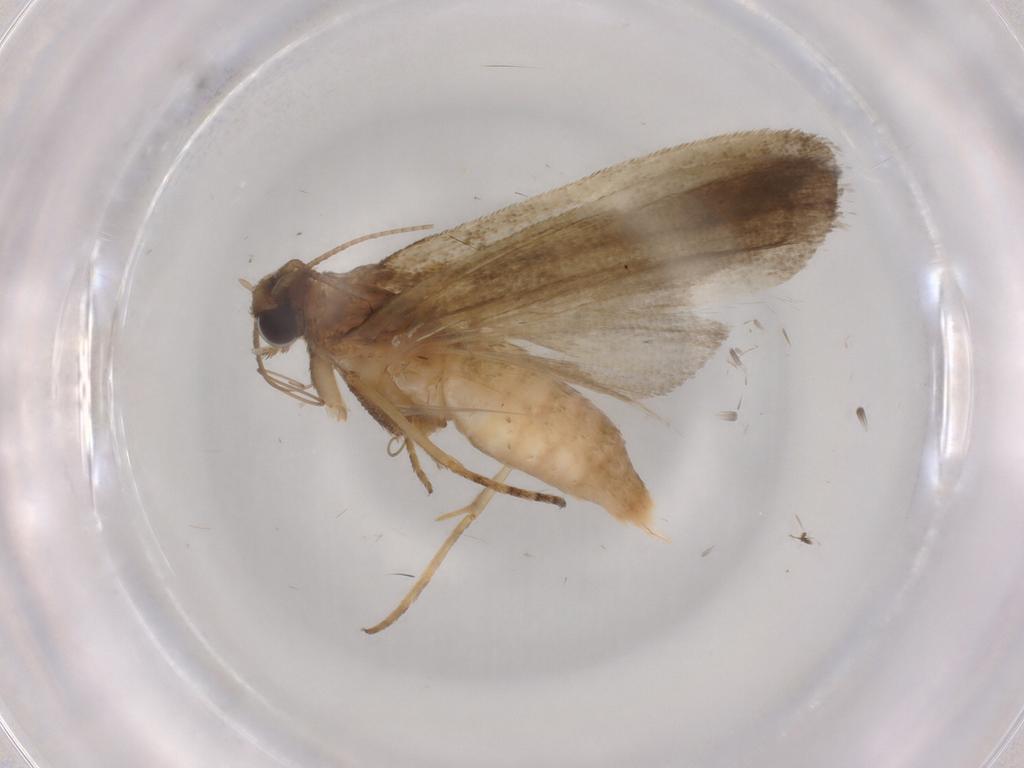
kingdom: Animalia
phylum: Arthropoda
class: Insecta
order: Lepidoptera
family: Noctuidae
